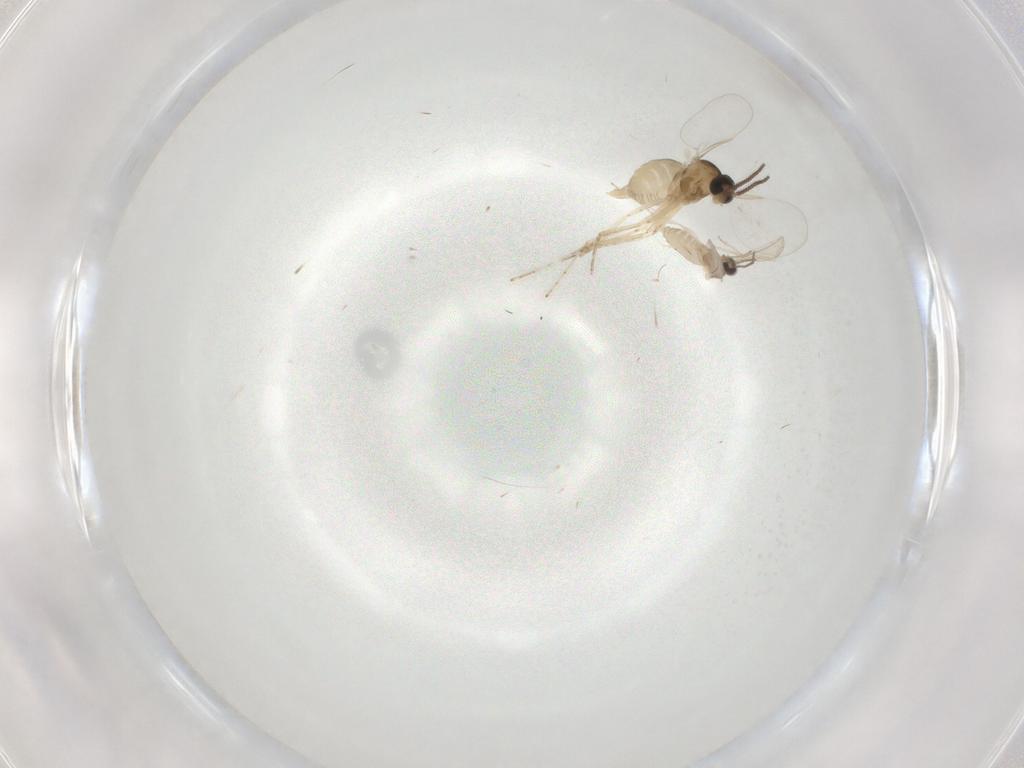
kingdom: Animalia
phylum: Arthropoda
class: Insecta
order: Diptera
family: Cecidomyiidae
